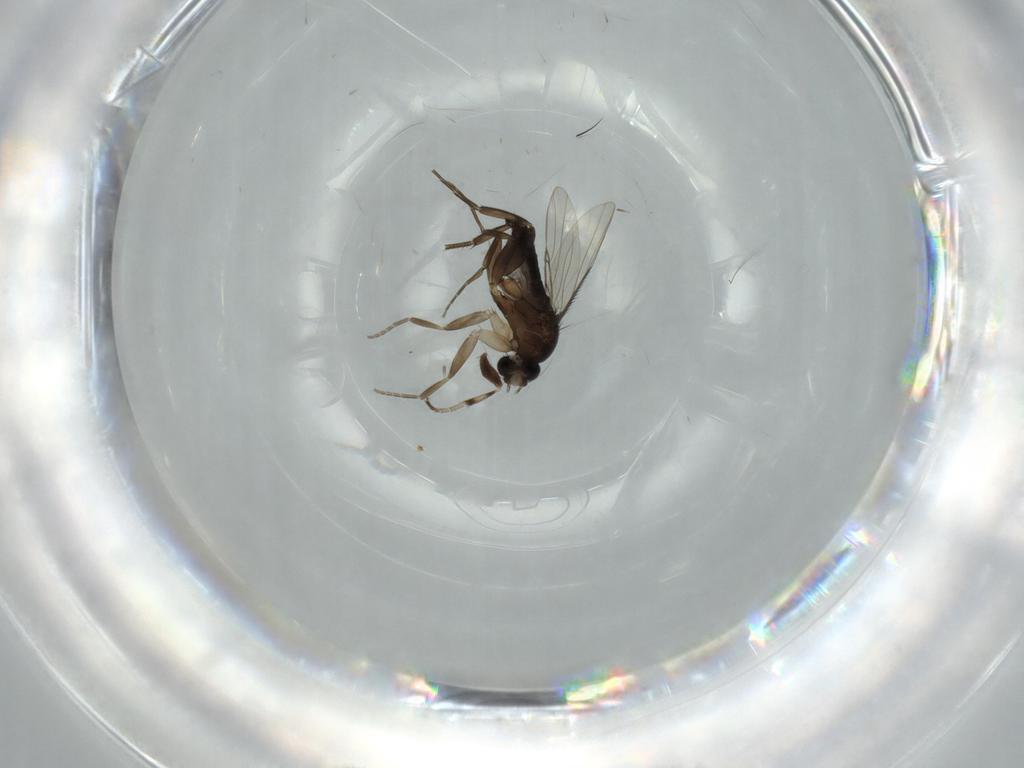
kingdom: Animalia
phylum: Arthropoda
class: Insecta
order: Diptera
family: Phoridae
